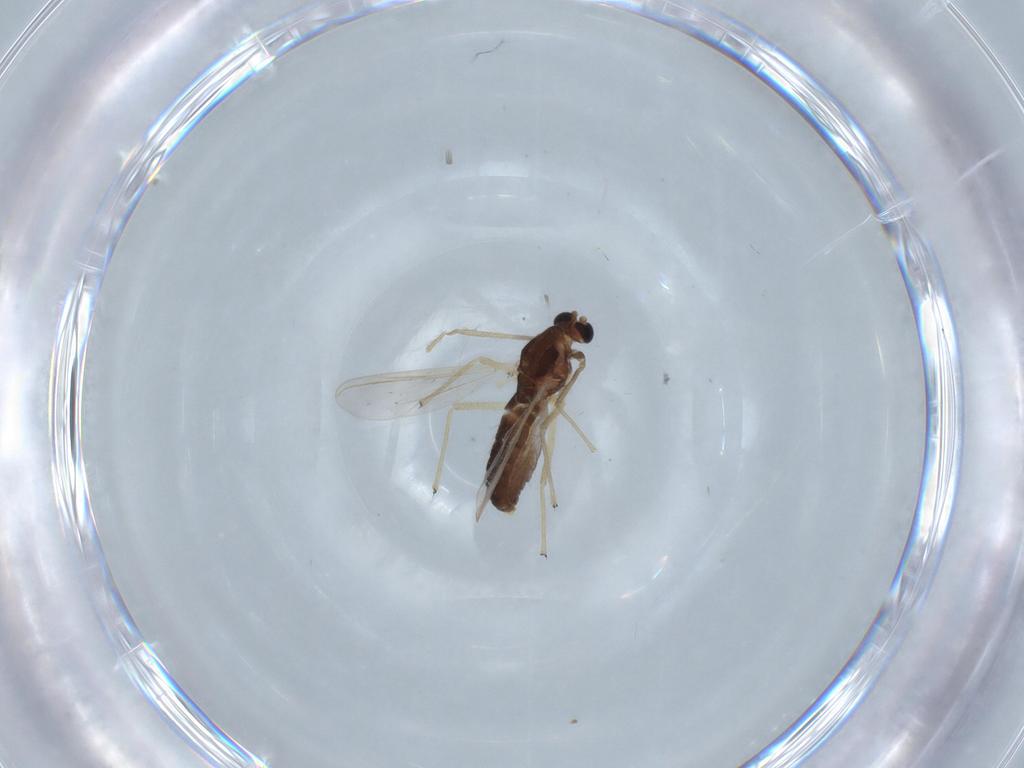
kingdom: Animalia
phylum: Arthropoda
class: Insecta
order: Diptera
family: Chironomidae
